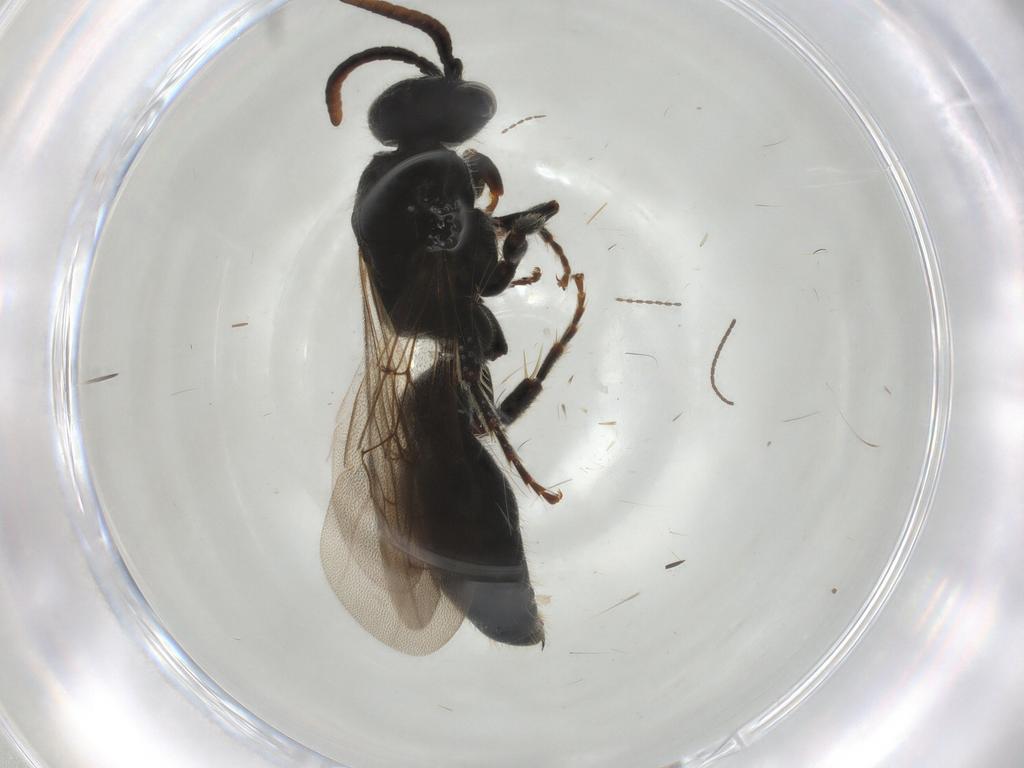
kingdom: Animalia
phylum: Arthropoda
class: Insecta
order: Hymenoptera
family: Tiphiidae
